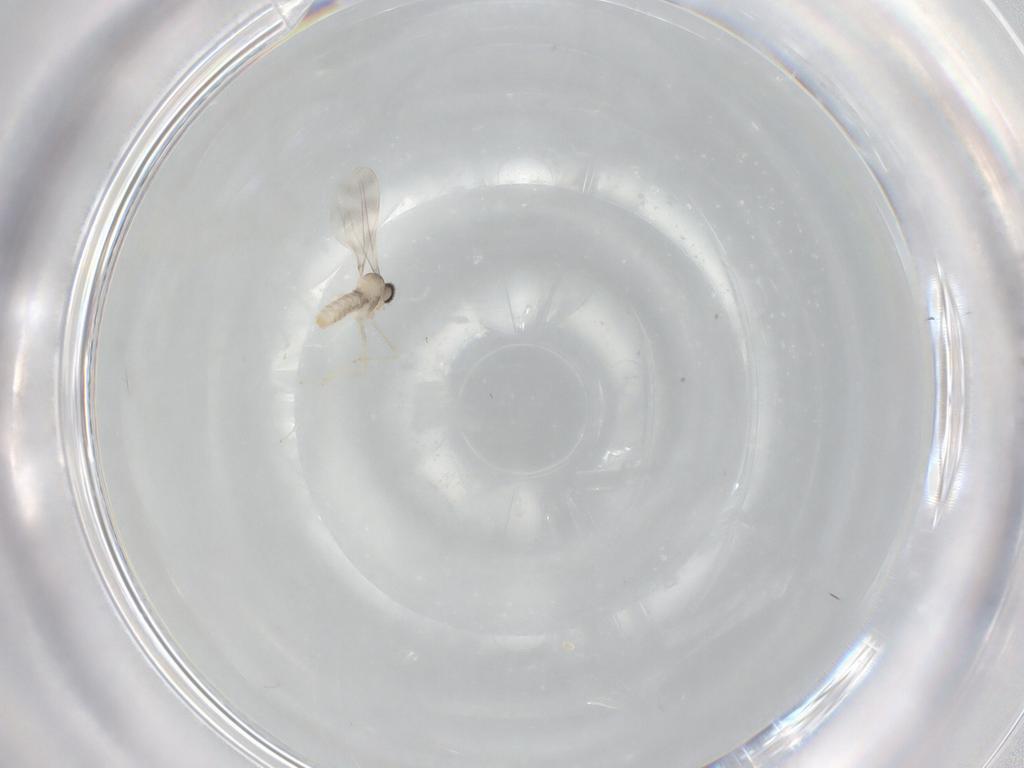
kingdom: Animalia
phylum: Arthropoda
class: Insecta
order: Diptera
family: Cecidomyiidae
